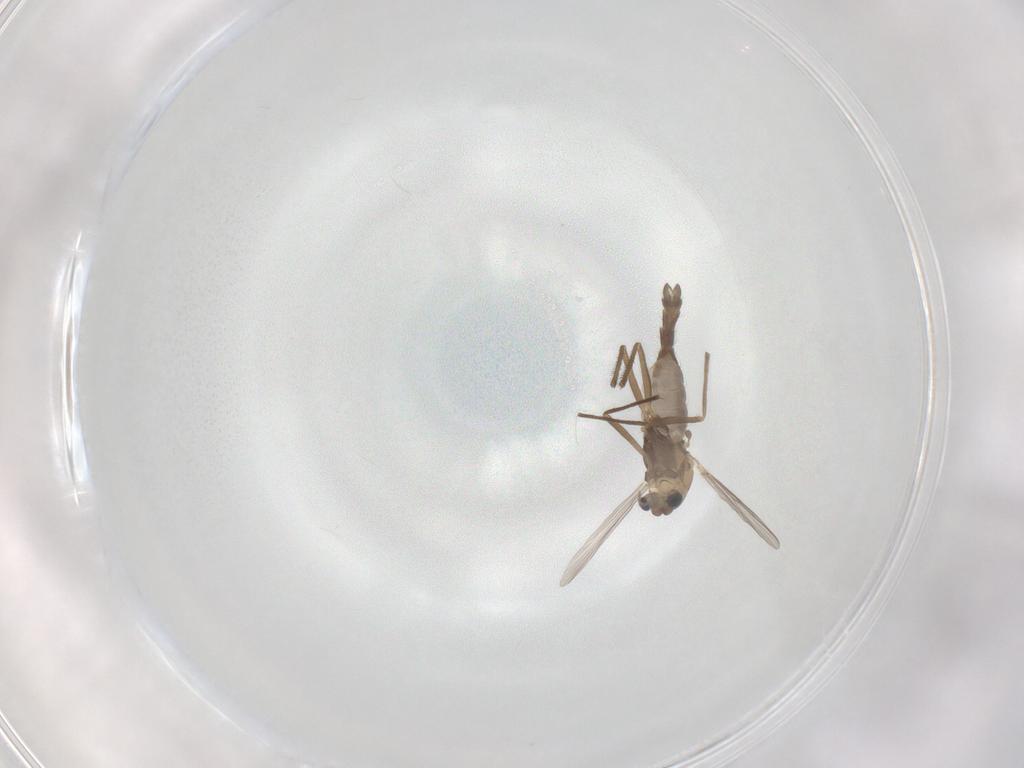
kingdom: Animalia
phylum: Arthropoda
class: Insecta
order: Diptera
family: Chironomidae
